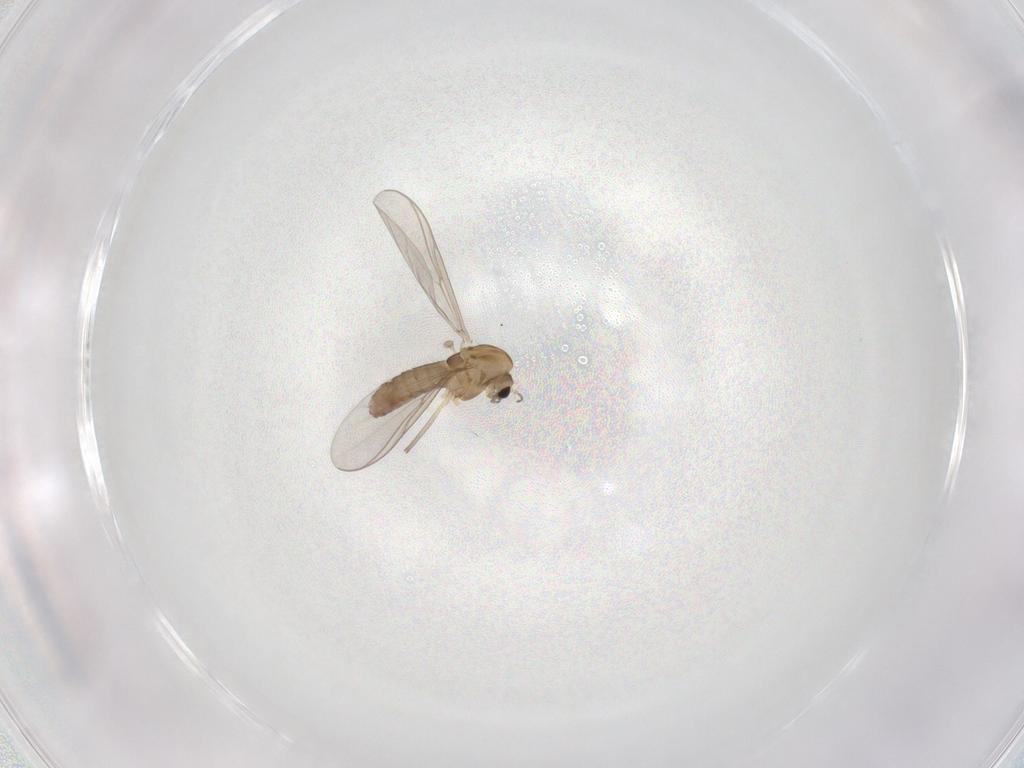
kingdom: Animalia
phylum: Arthropoda
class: Insecta
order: Diptera
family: Chironomidae
